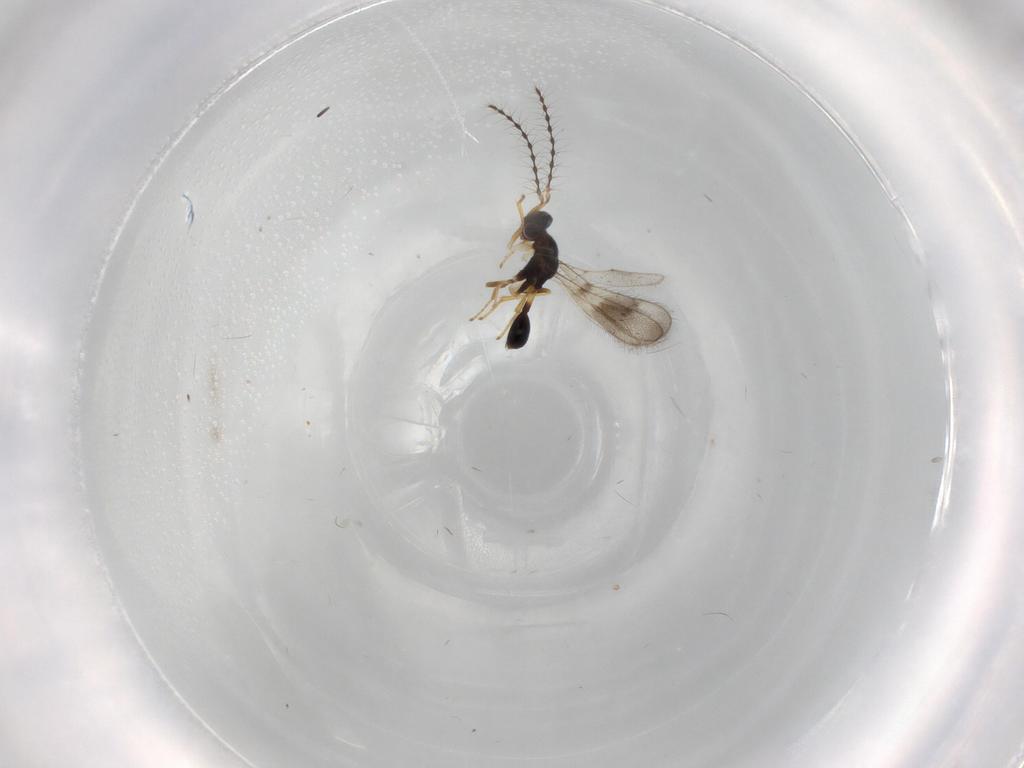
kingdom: Animalia
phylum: Arthropoda
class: Insecta
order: Hymenoptera
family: Diparidae
